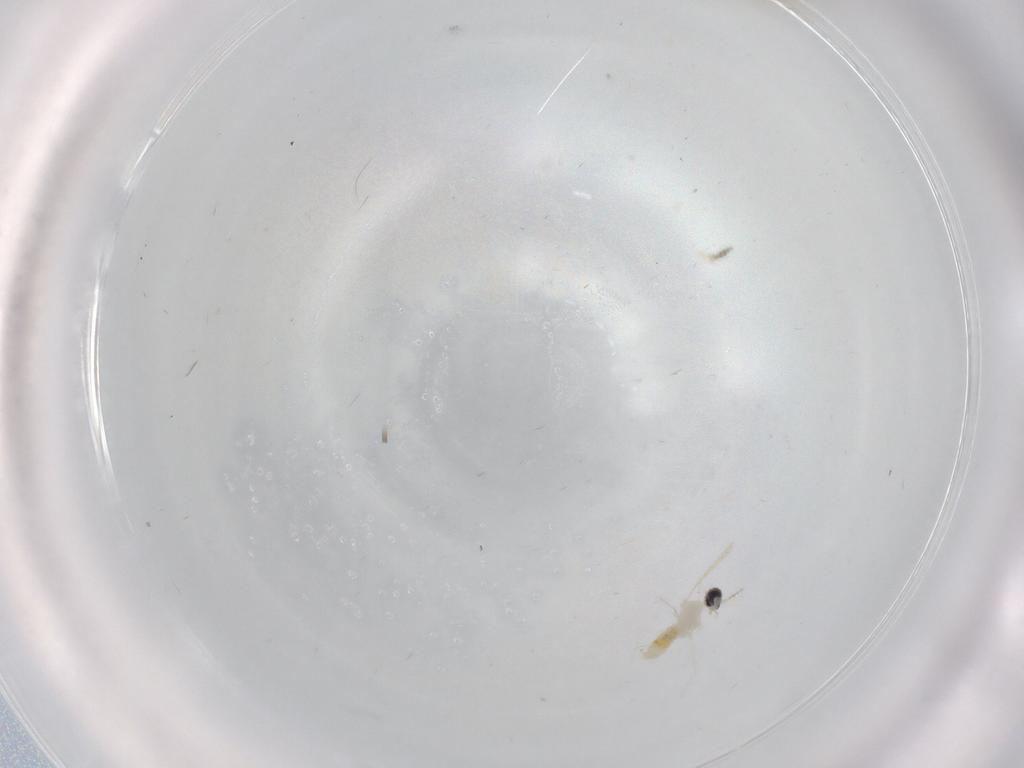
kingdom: Animalia
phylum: Arthropoda
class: Insecta
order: Diptera
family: Cecidomyiidae
